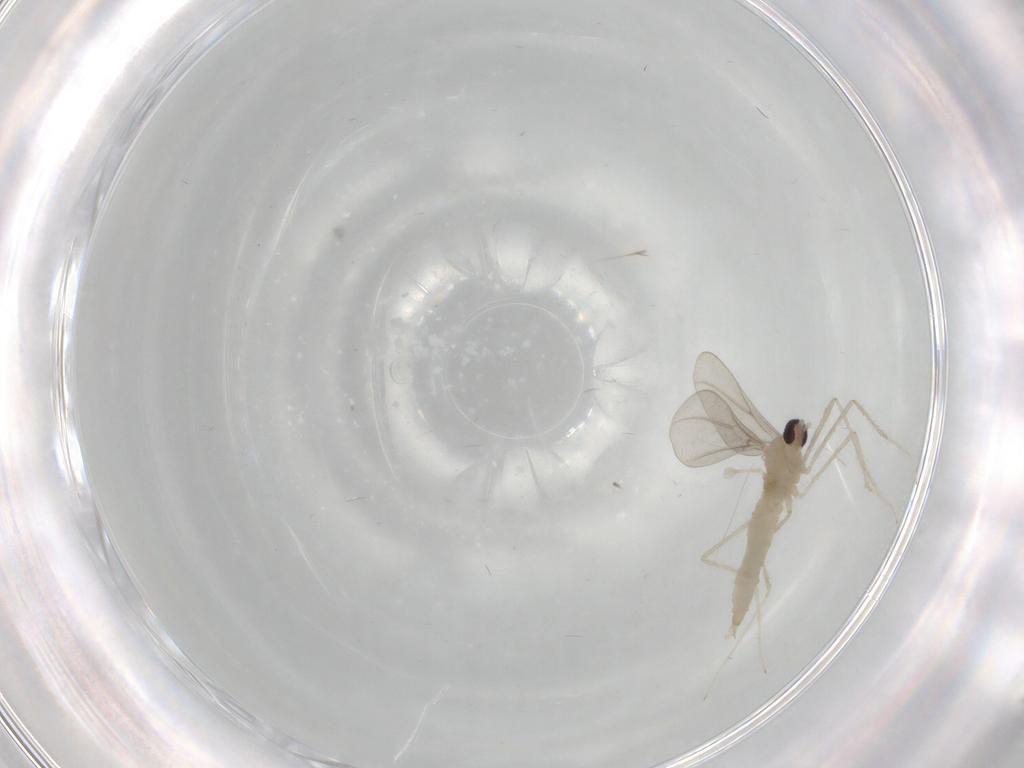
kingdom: Animalia
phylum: Arthropoda
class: Insecta
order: Diptera
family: Cecidomyiidae
